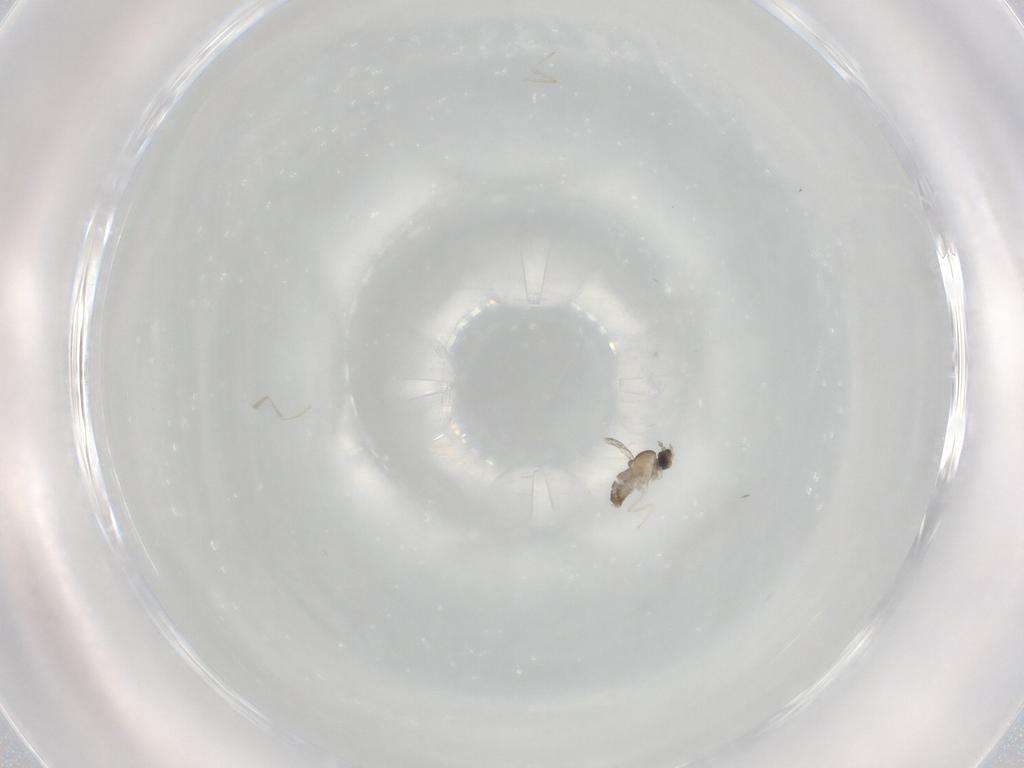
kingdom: Animalia
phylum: Arthropoda
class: Insecta
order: Diptera
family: Cecidomyiidae
